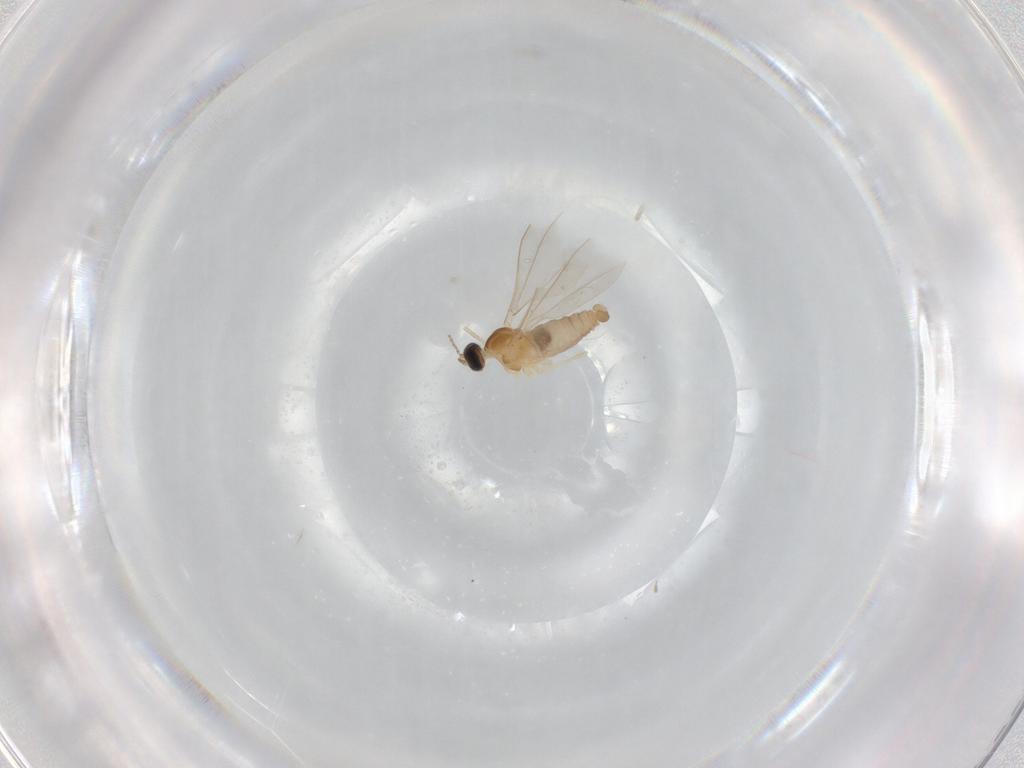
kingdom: Animalia
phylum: Arthropoda
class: Insecta
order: Diptera
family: Cecidomyiidae
